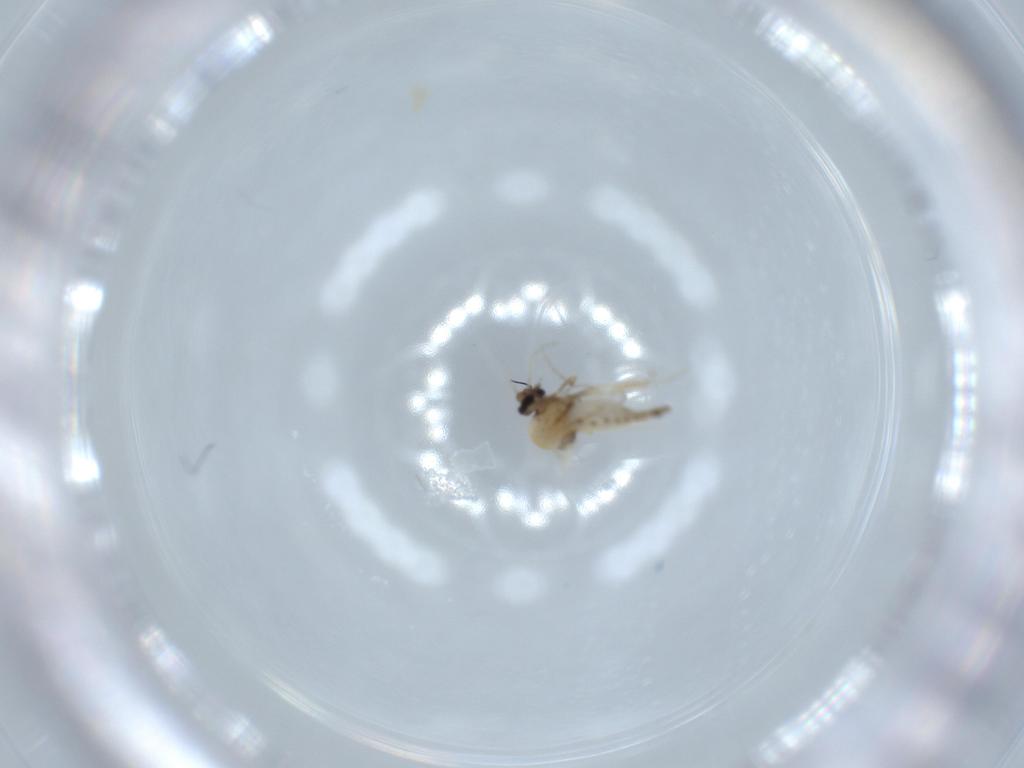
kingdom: Animalia
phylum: Arthropoda
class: Insecta
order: Diptera
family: Ceratopogonidae
